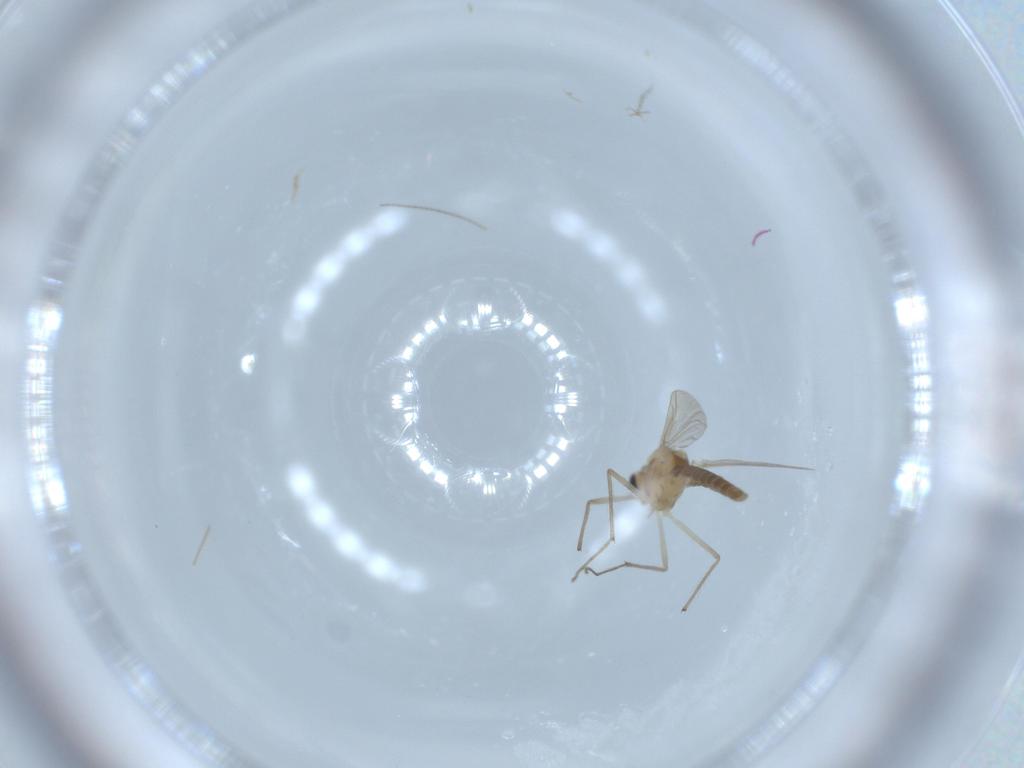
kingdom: Animalia
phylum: Arthropoda
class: Insecta
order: Diptera
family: Chironomidae
